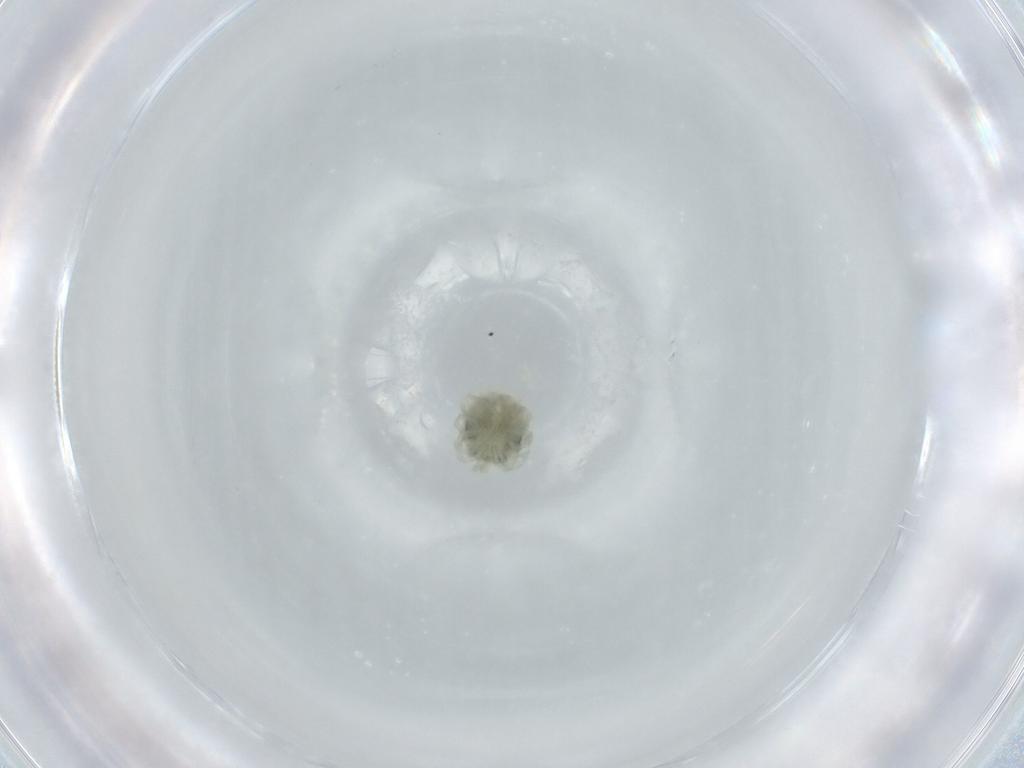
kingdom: Animalia
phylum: Arthropoda
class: Arachnida
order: Trombidiformes
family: Sperchontidae
